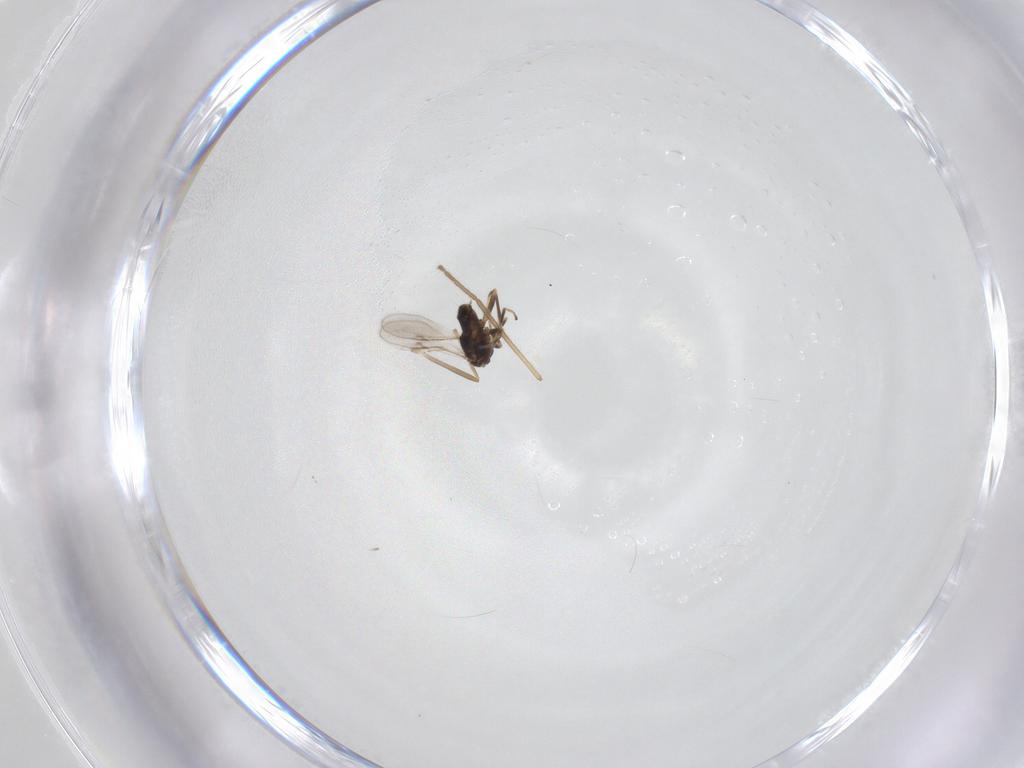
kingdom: Animalia
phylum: Arthropoda
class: Insecta
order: Hymenoptera
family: Encyrtidae
